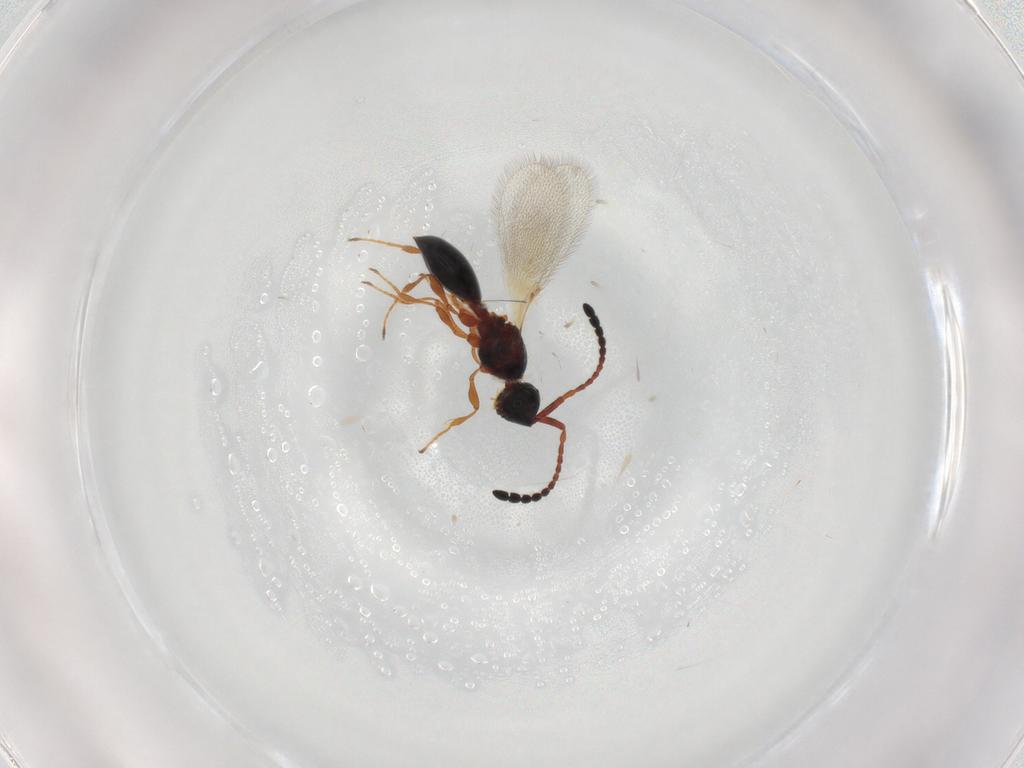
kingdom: Animalia
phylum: Arthropoda
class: Insecta
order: Hymenoptera
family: Diapriidae
